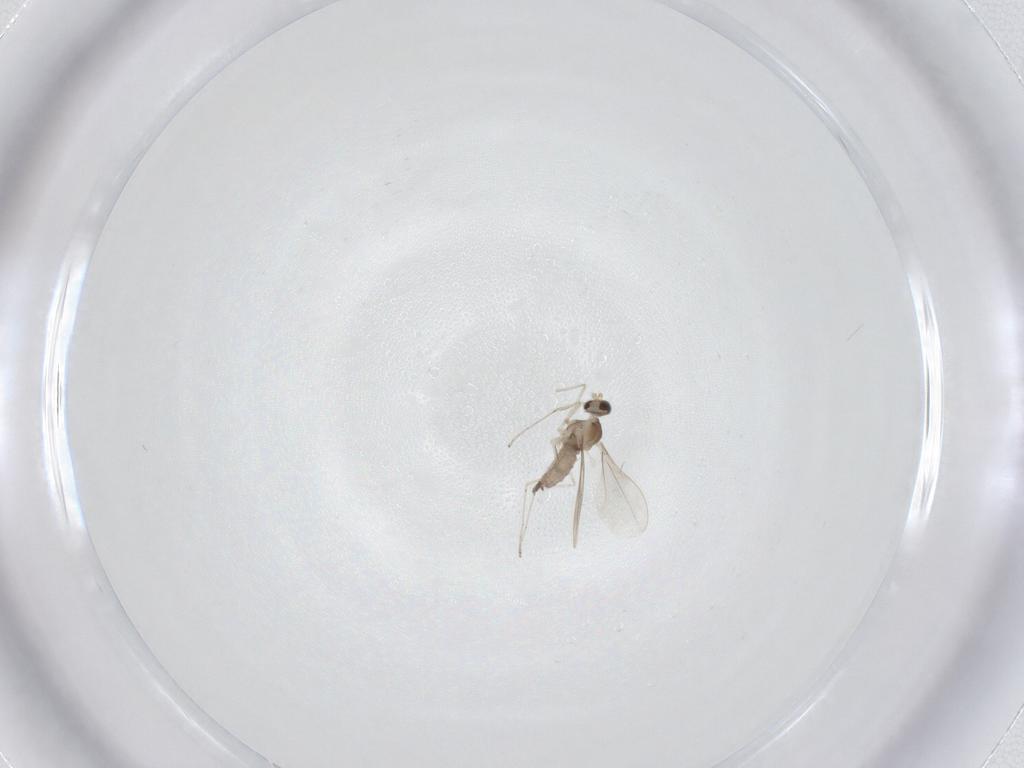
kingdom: Animalia
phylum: Arthropoda
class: Insecta
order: Diptera
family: Cecidomyiidae
